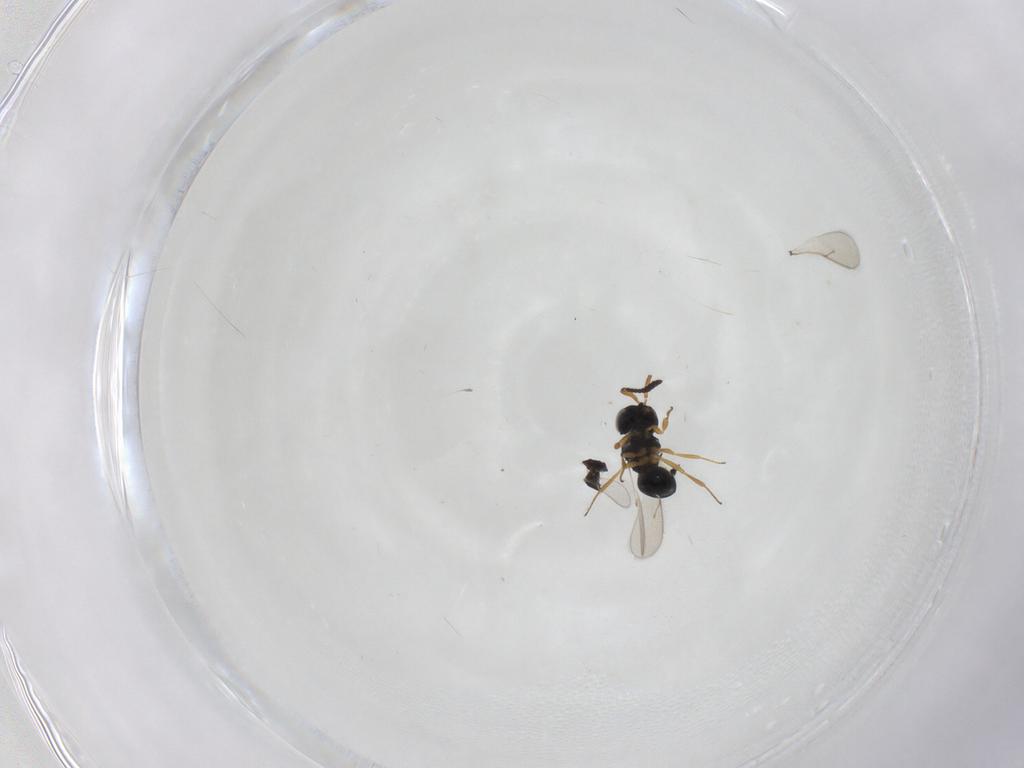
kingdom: Animalia
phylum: Arthropoda
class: Insecta
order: Hymenoptera
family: Scelionidae
